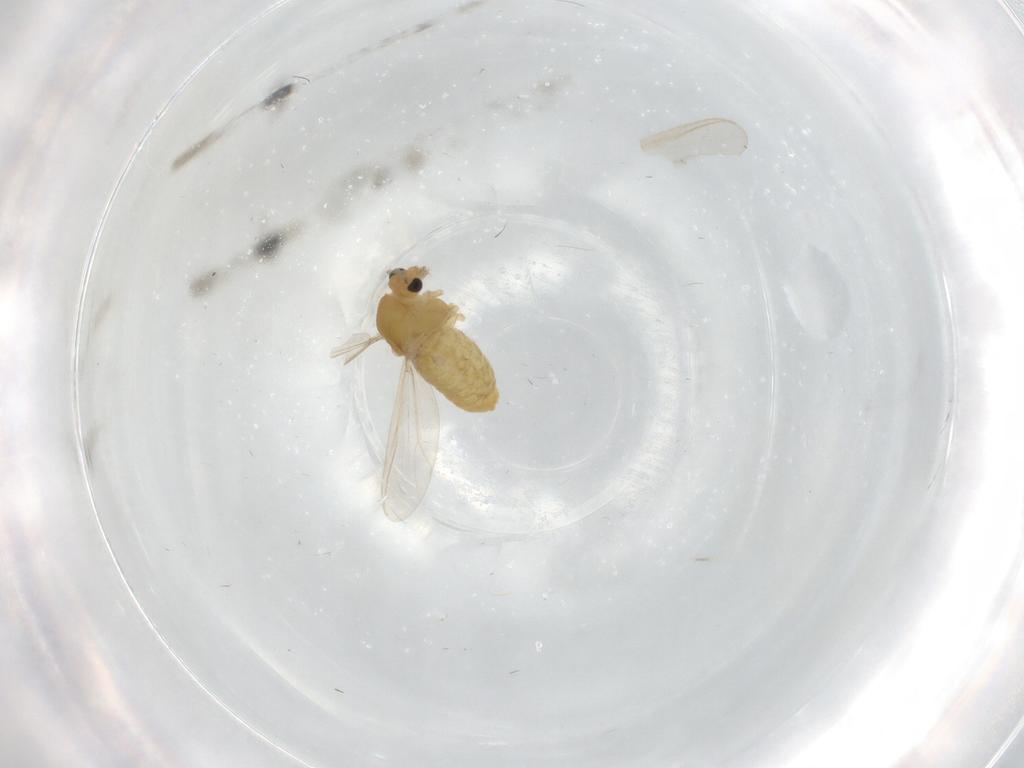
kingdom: Animalia
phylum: Arthropoda
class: Insecta
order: Diptera
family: Chironomidae
